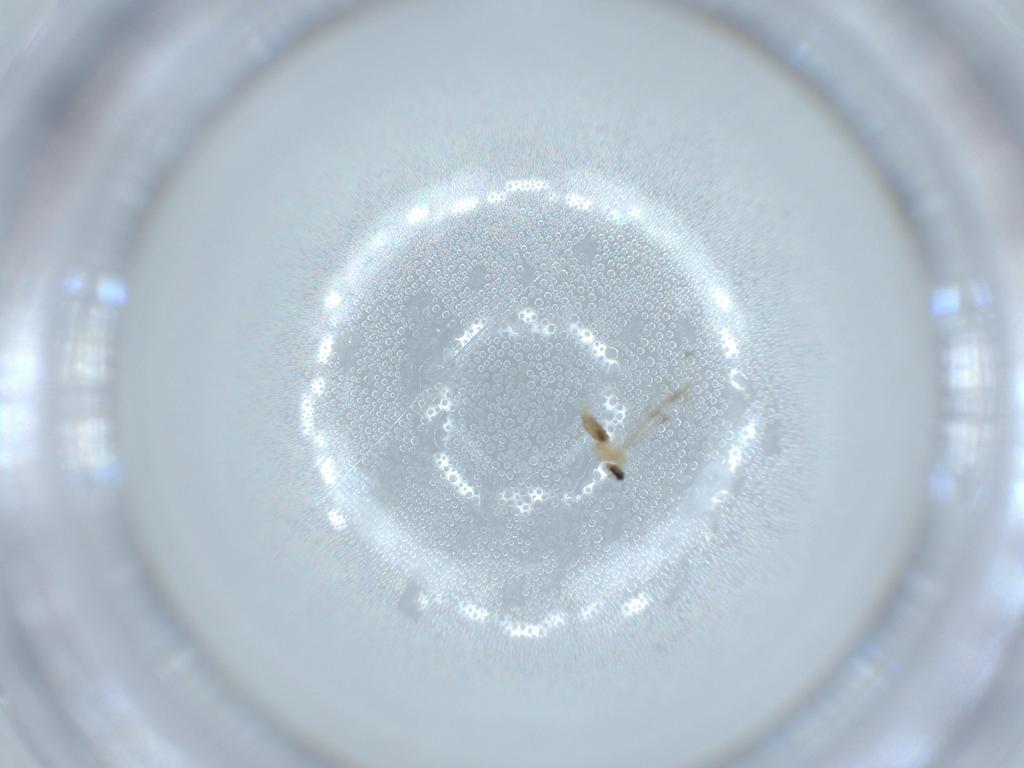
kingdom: Animalia
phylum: Arthropoda
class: Insecta
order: Diptera
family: Cecidomyiidae
